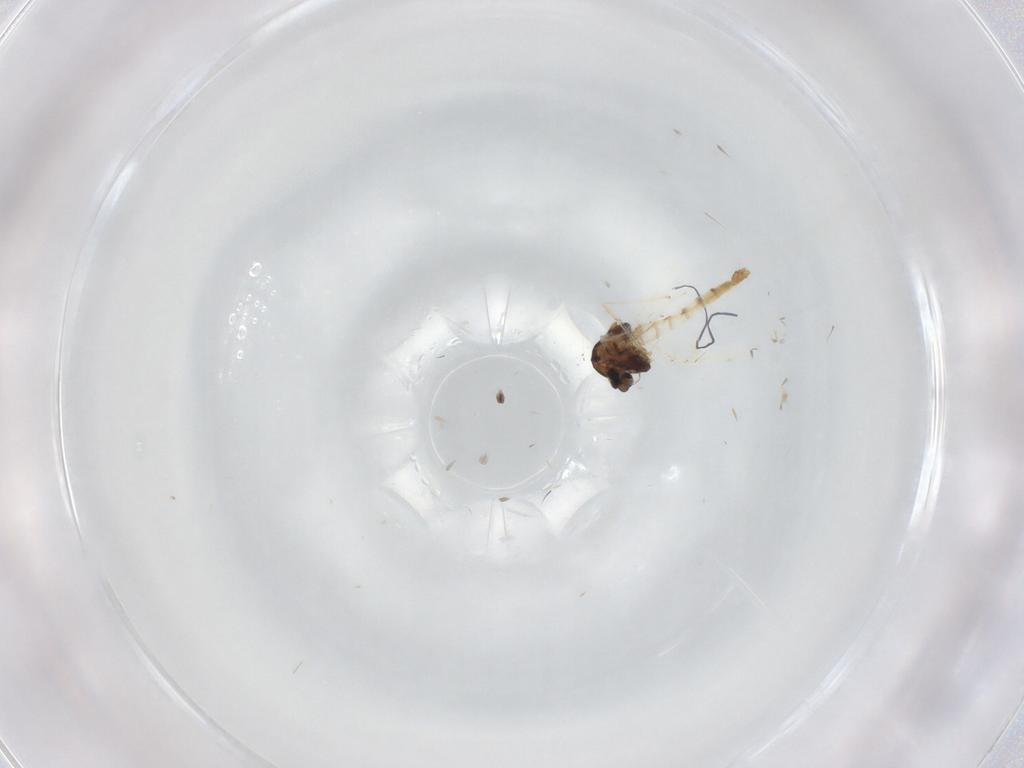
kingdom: Animalia
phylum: Arthropoda
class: Insecta
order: Diptera
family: Chironomidae
